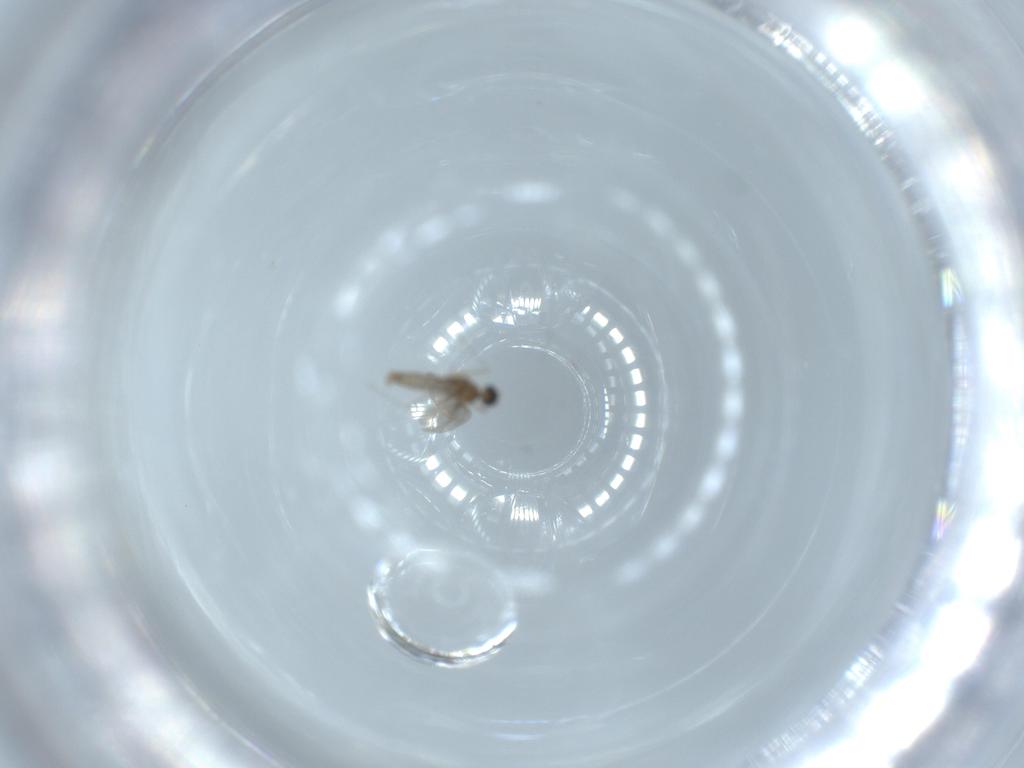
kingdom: Animalia
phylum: Arthropoda
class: Insecta
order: Diptera
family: Cecidomyiidae
